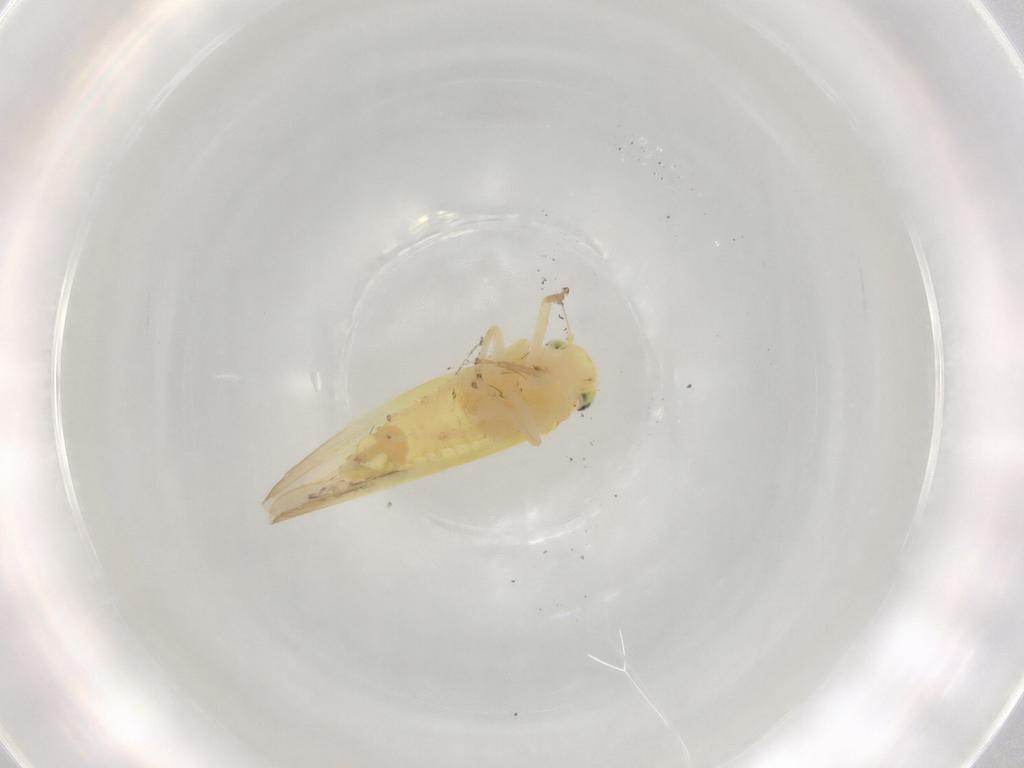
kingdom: Animalia
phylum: Arthropoda
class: Insecta
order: Hemiptera
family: Cicadellidae
